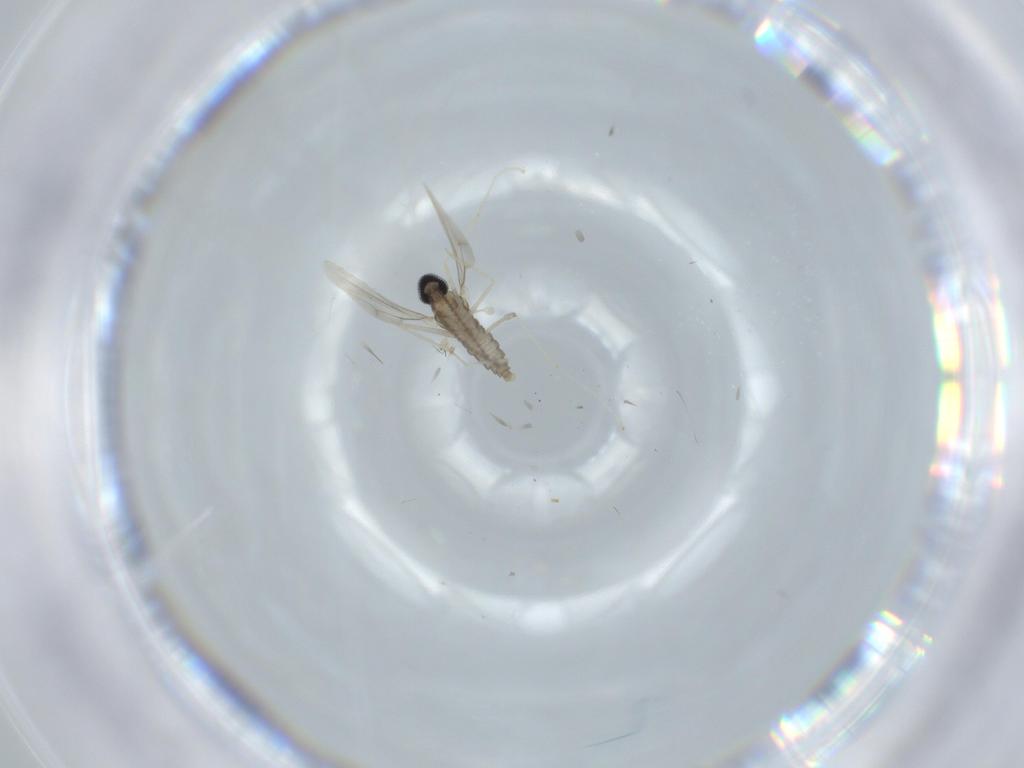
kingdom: Animalia
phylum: Arthropoda
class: Insecta
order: Diptera
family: Cecidomyiidae
